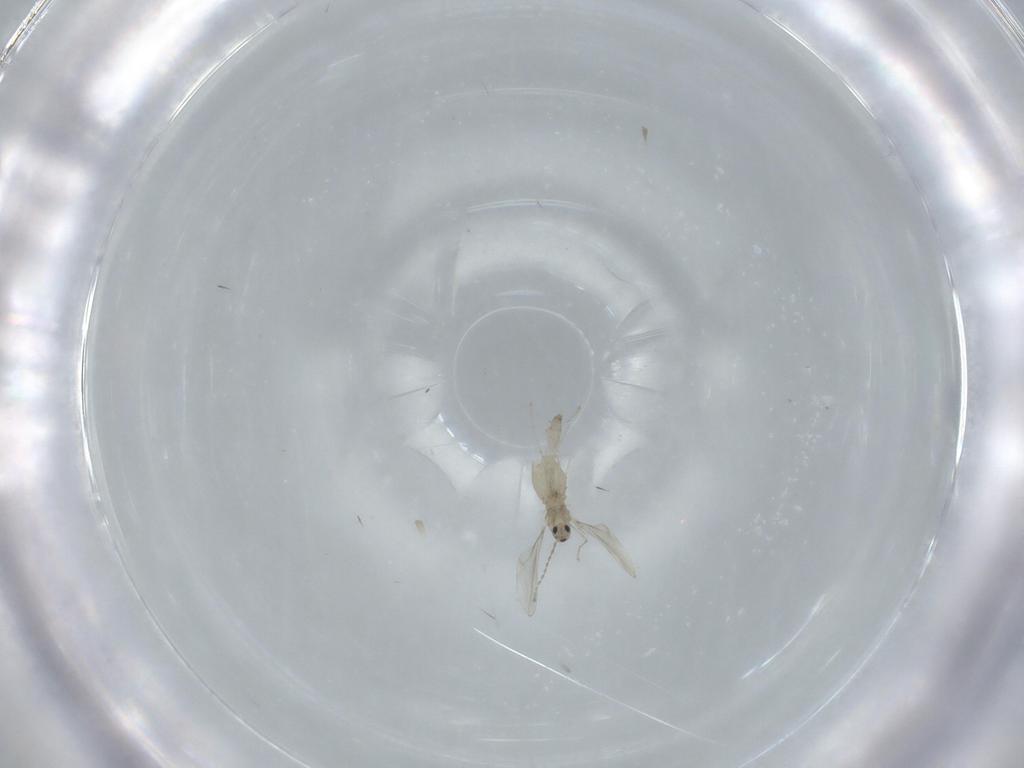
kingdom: Animalia
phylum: Arthropoda
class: Insecta
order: Diptera
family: Cecidomyiidae
